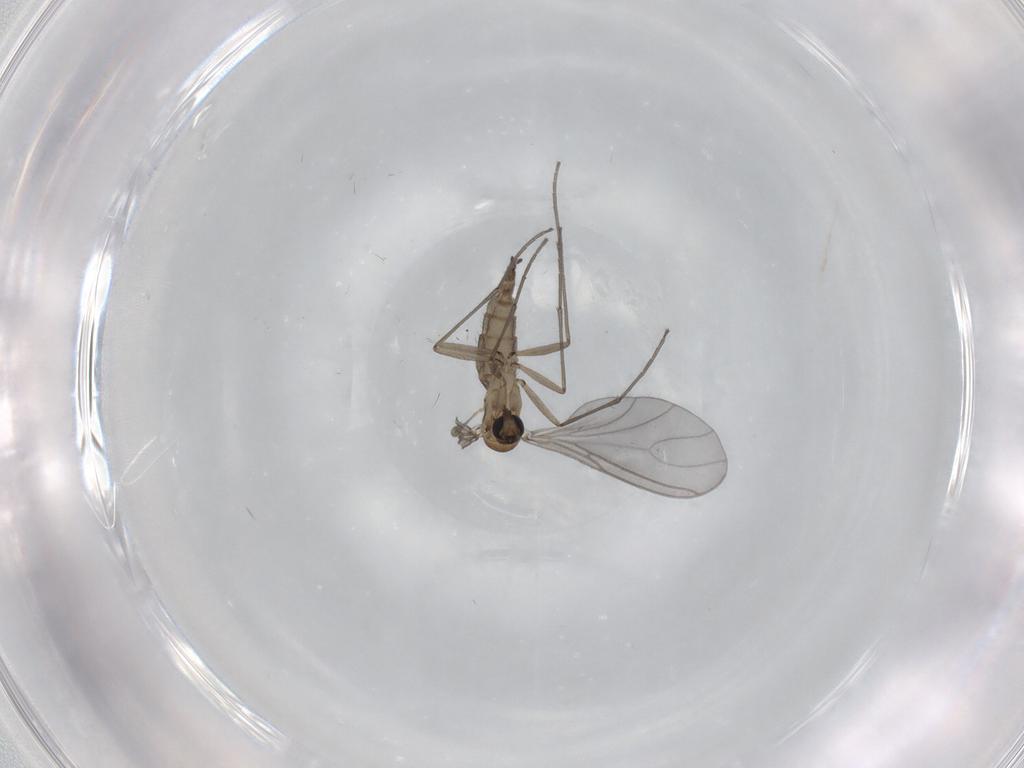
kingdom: Animalia
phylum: Arthropoda
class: Insecta
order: Diptera
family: Sciaridae
